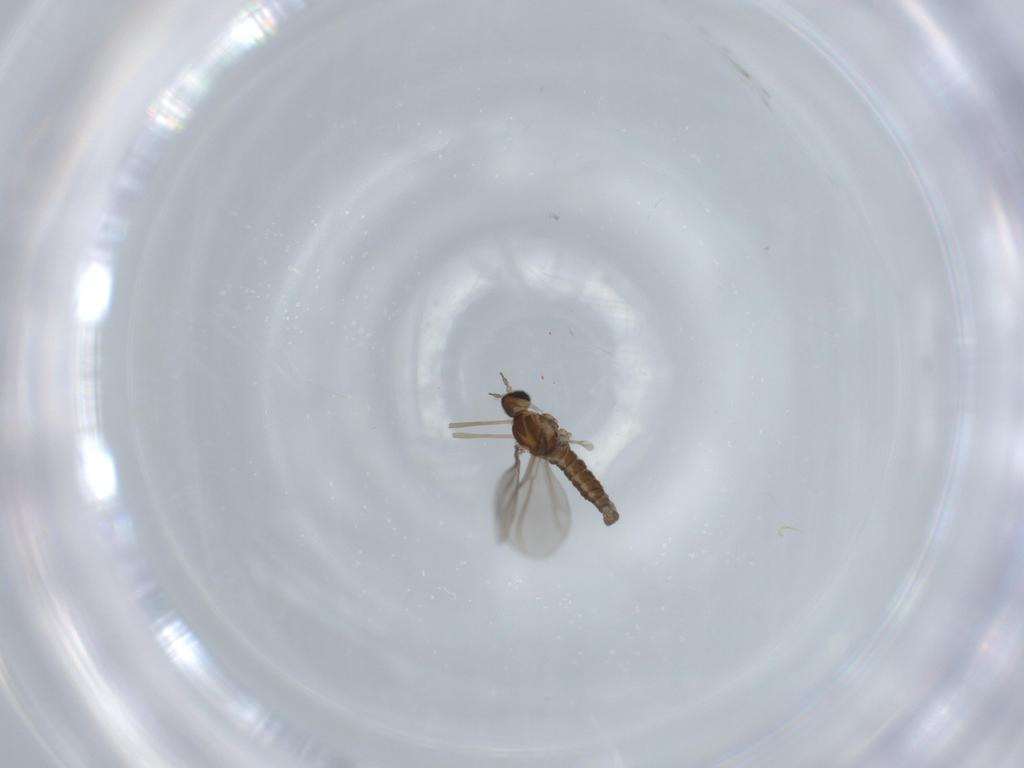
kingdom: Animalia
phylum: Arthropoda
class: Insecta
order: Diptera
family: Cecidomyiidae
